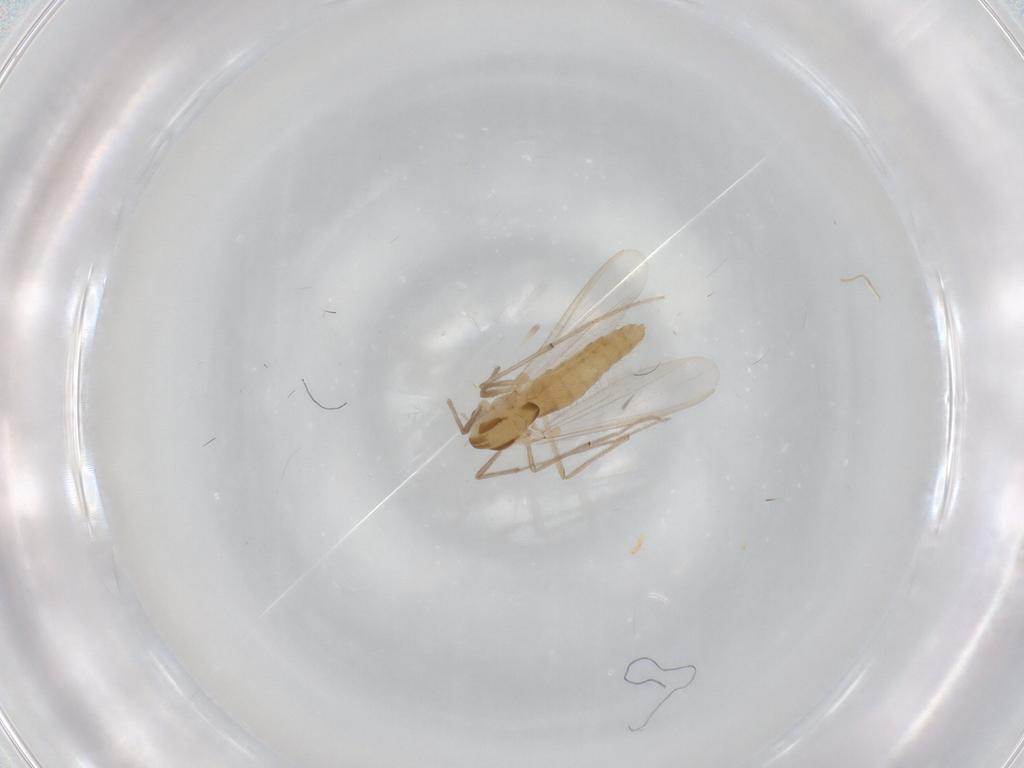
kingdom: Animalia
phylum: Arthropoda
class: Insecta
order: Diptera
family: Chironomidae
